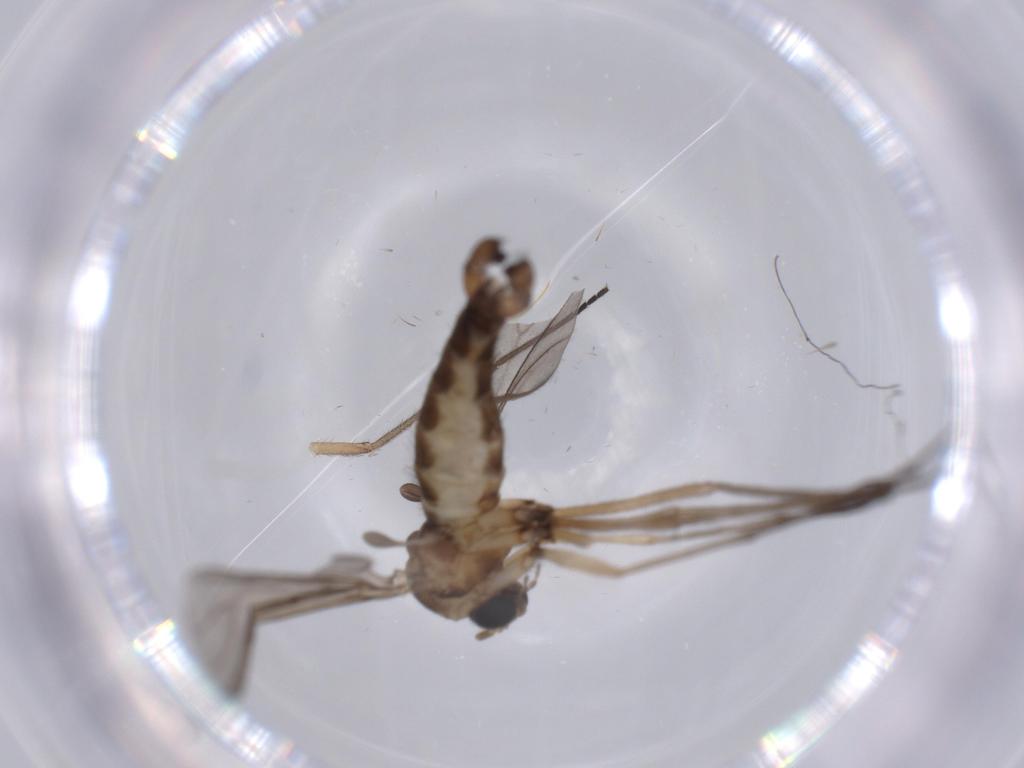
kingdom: Animalia
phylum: Arthropoda
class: Insecta
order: Diptera
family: Sciaridae
